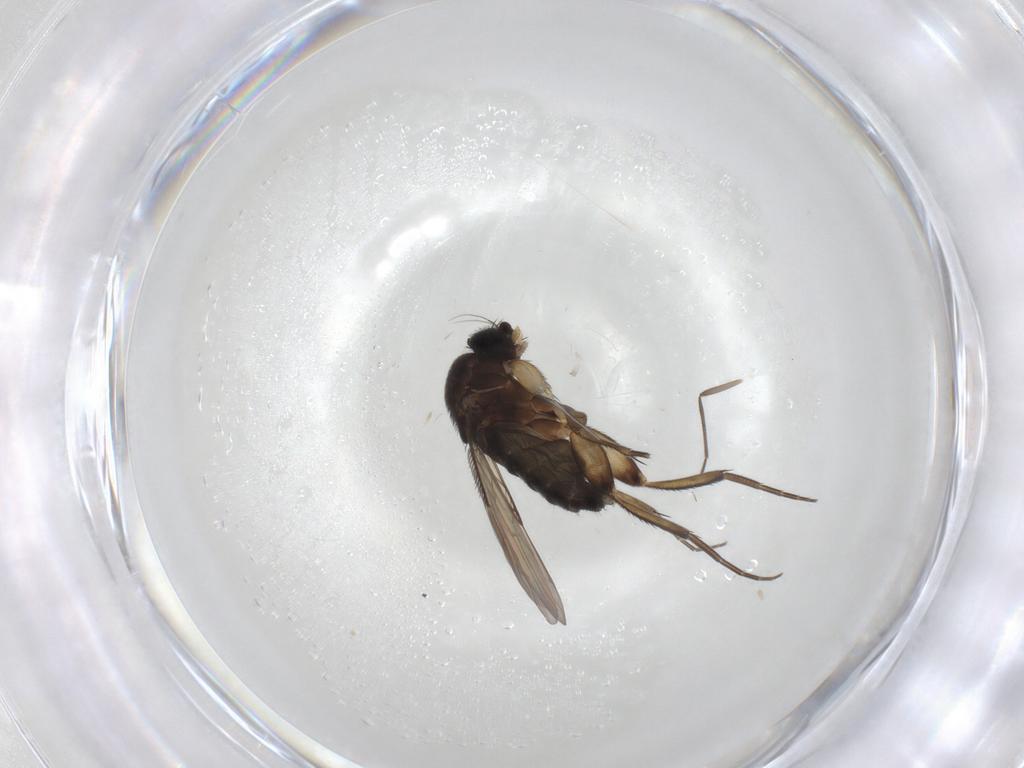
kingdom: Animalia
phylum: Arthropoda
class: Insecta
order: Diptera
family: Phoridae
